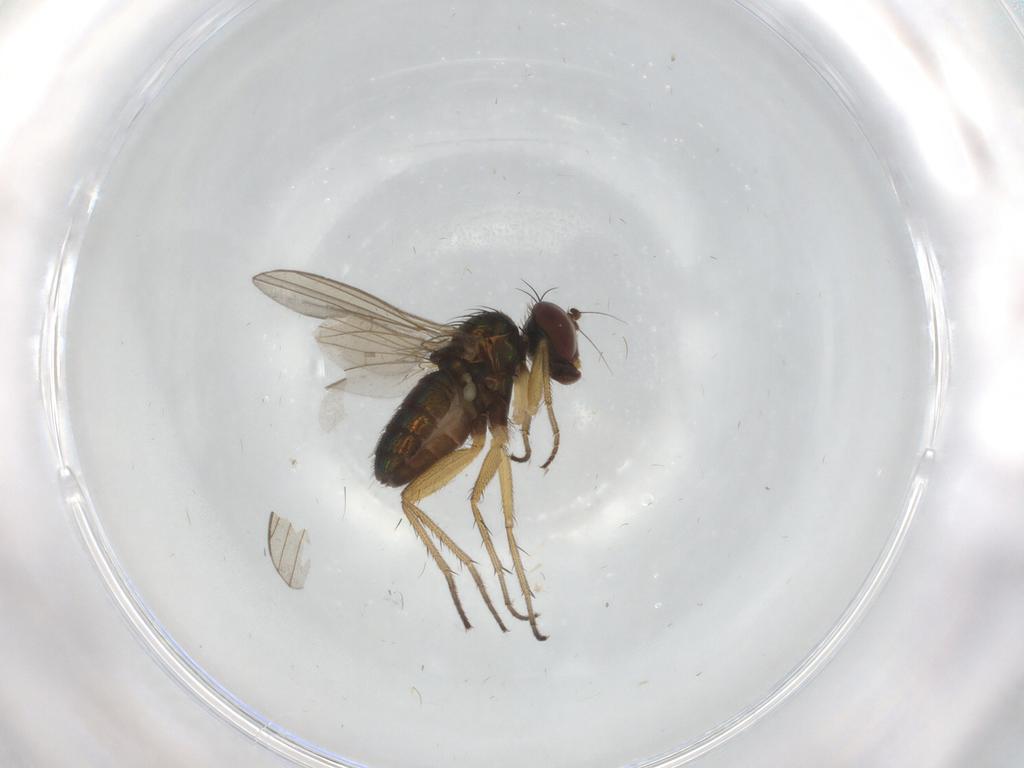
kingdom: Animalia
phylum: Arthropoda
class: Insecta
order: Diptera
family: Dolichopodidae
